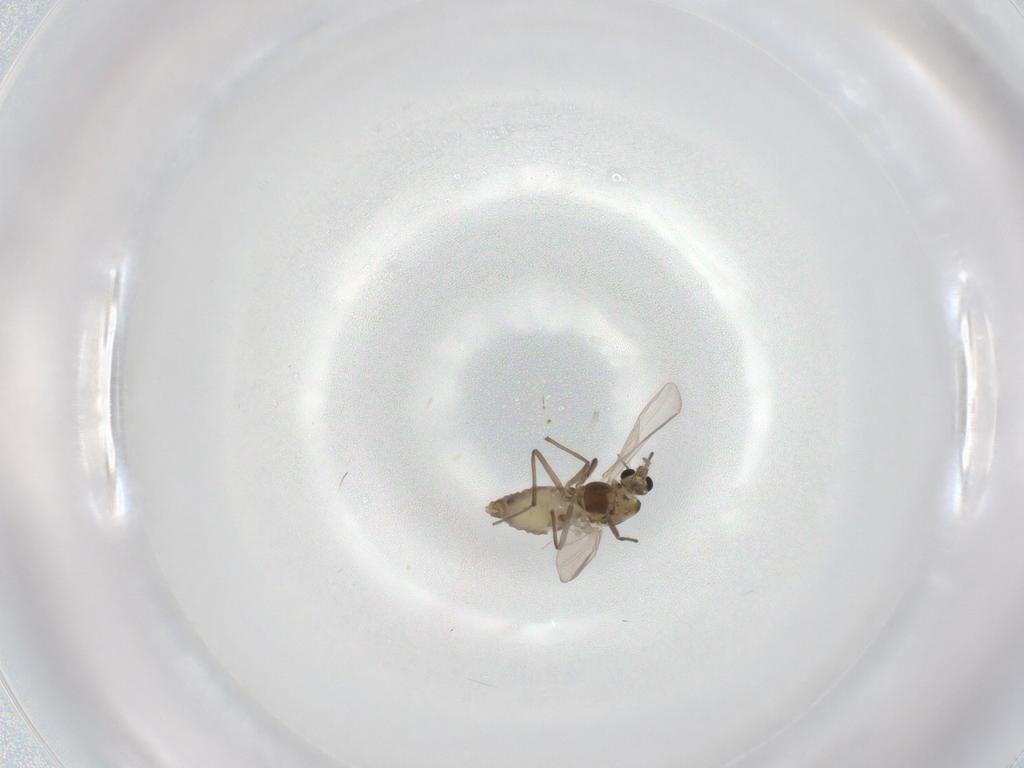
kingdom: Animalia
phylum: Arthropoda
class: Insecta
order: Diptera
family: Chironomidae
